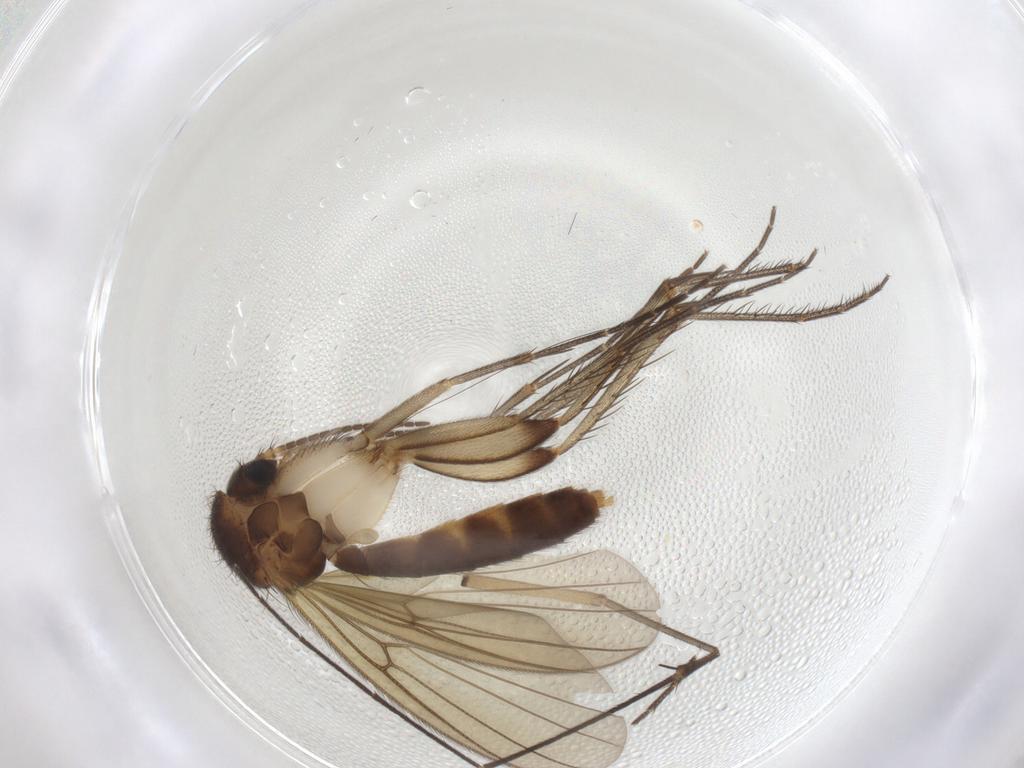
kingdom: Animalia
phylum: Arthropoda
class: Insecta
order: Diptera
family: Mycetophilidae
